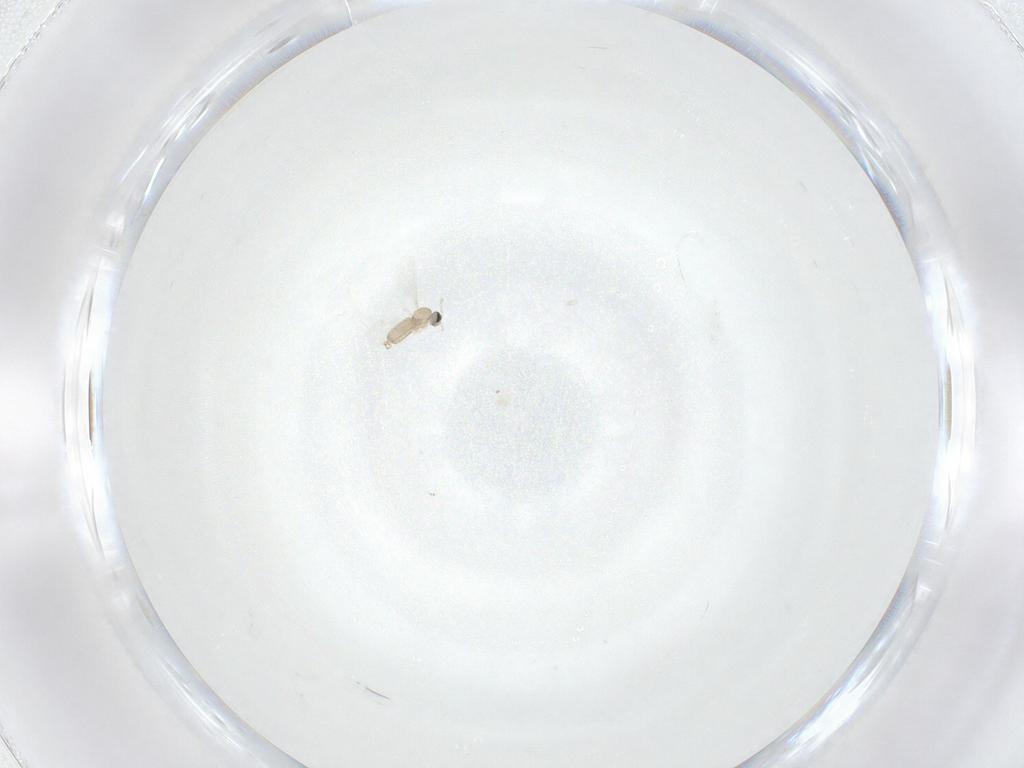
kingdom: Animalia
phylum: Arthropoda
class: Insecta
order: Diptera
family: Cecidomyiidae
